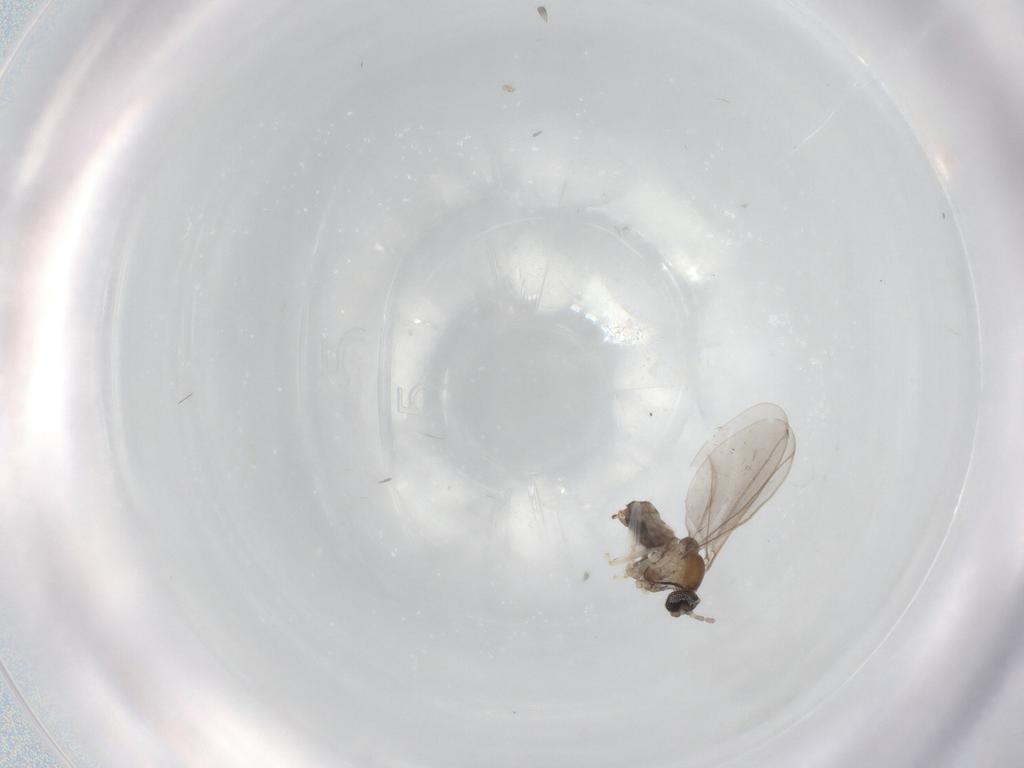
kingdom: Animalia
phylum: Arthropoda
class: Insecta
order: Diptera
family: Limoniidae
